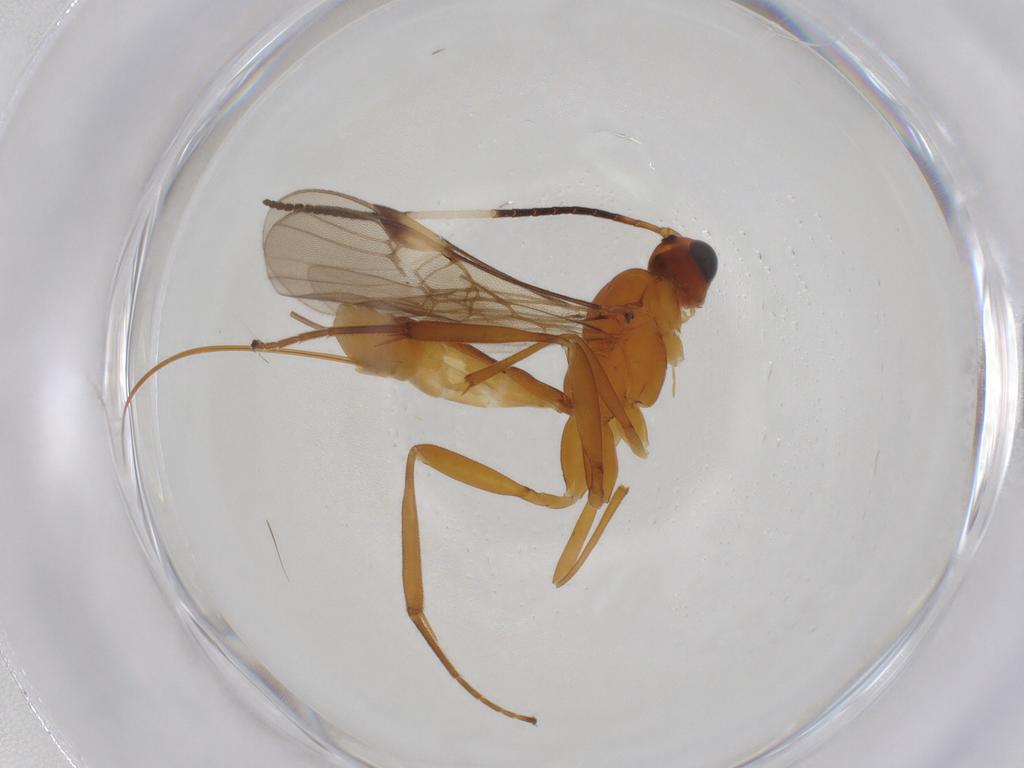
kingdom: Animalia
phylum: Arthropoda
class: Insecta
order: Hymenoptera
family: Braconidae
